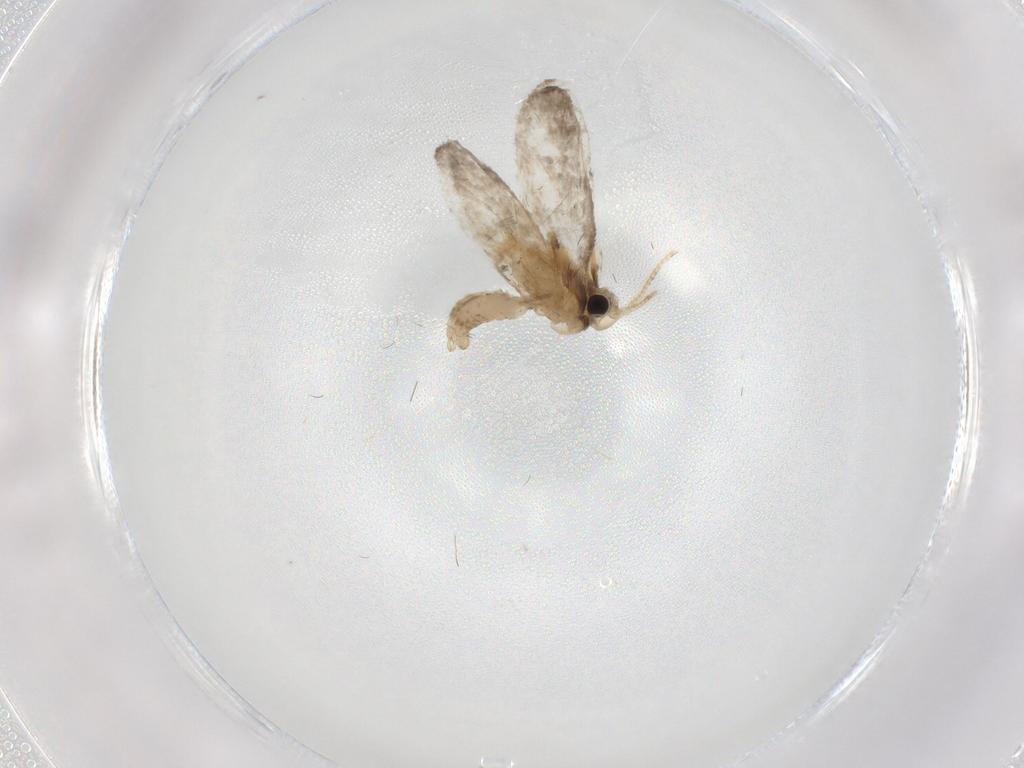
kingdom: Animalia
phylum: Arthropoda
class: Insecta
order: Lepidoptera
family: Psychidae
